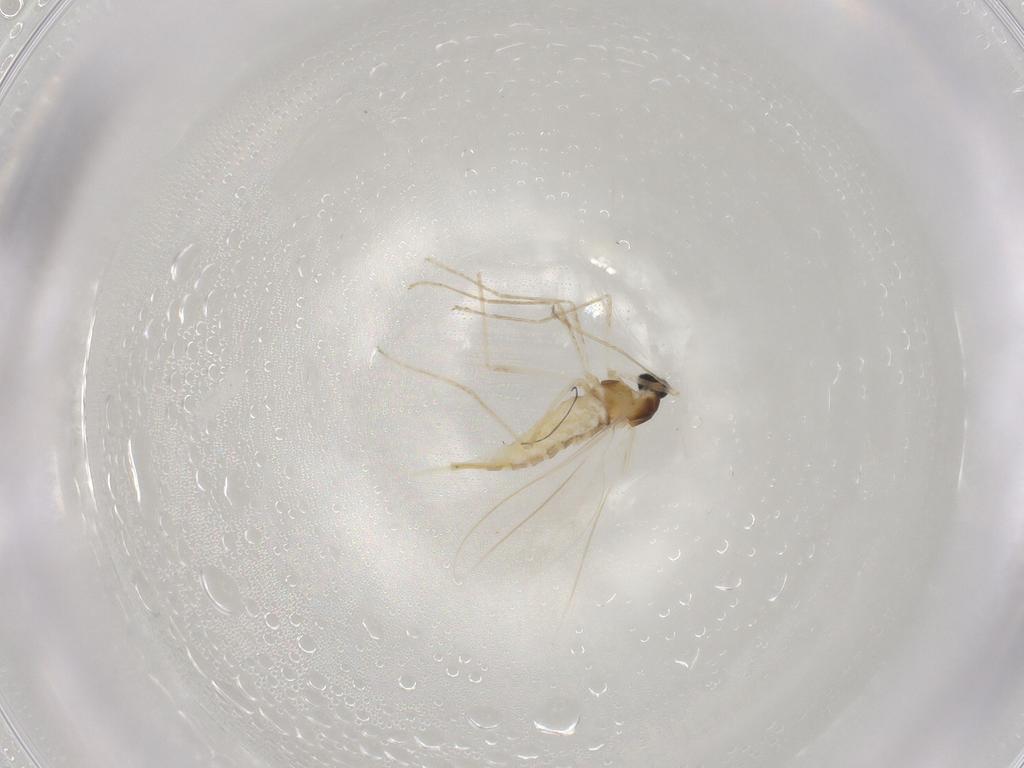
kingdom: Animalia
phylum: Arthropoda
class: Insecta
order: Diptera
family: Cecidomyiidae
